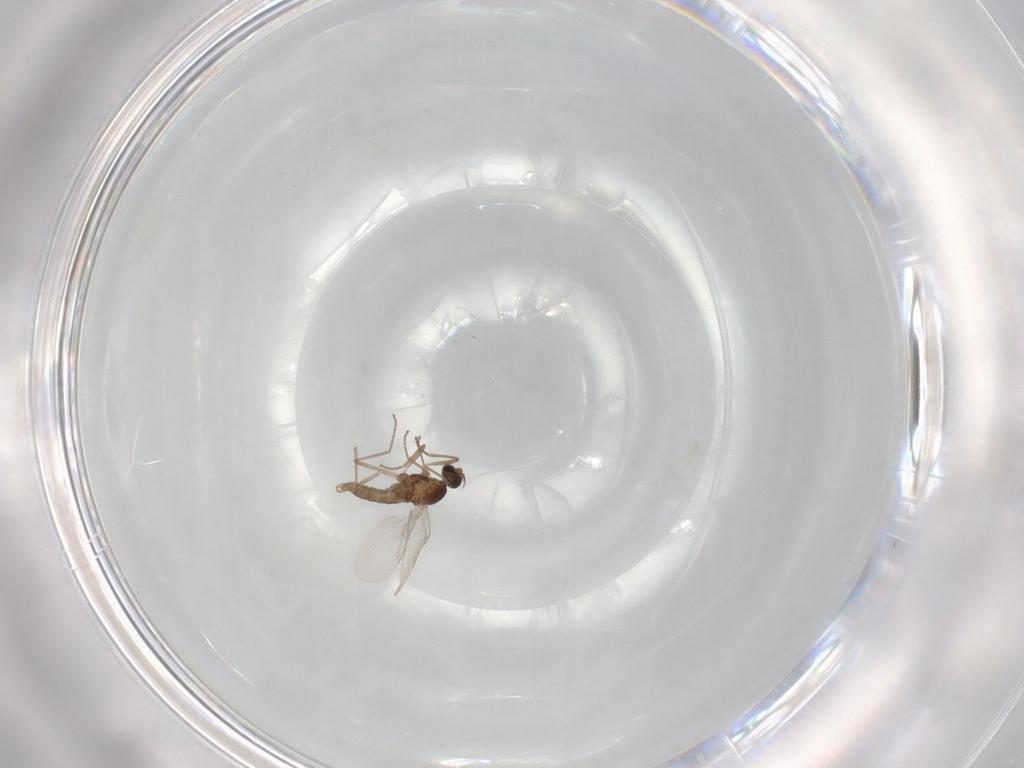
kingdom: Animalia
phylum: Arthropoda
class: Insecta
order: Diptera
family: Cecidomyiidae
